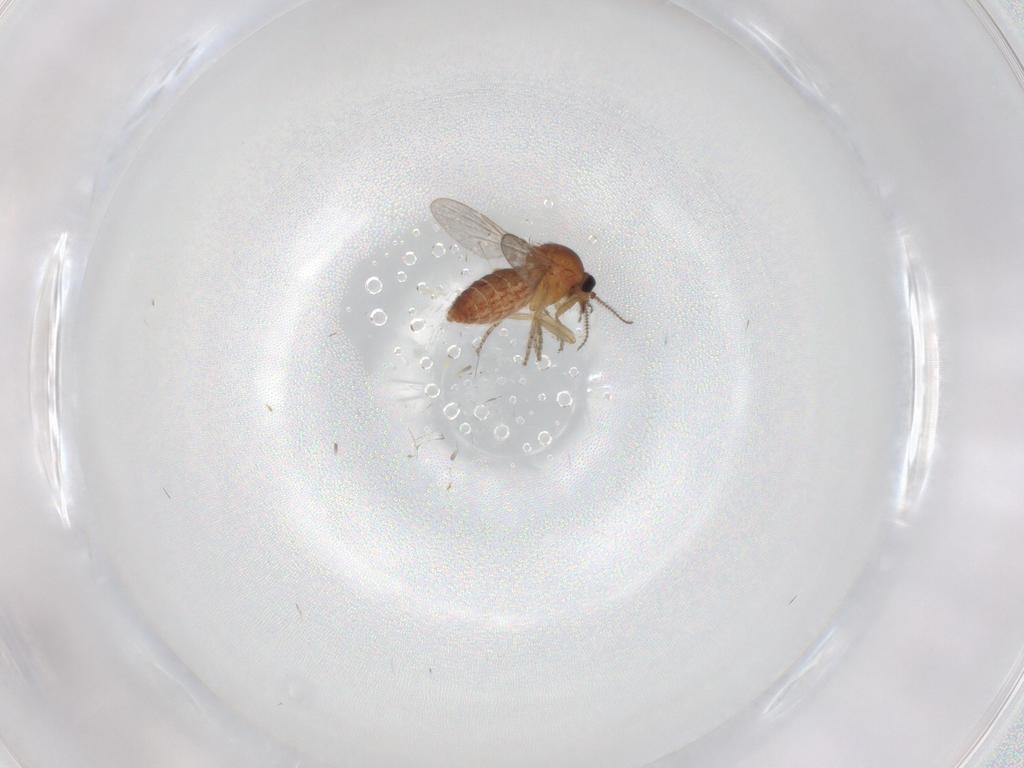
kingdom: Animalia
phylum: Arthropoda
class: Insecta
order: Diptera
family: Ceratopogonidae
